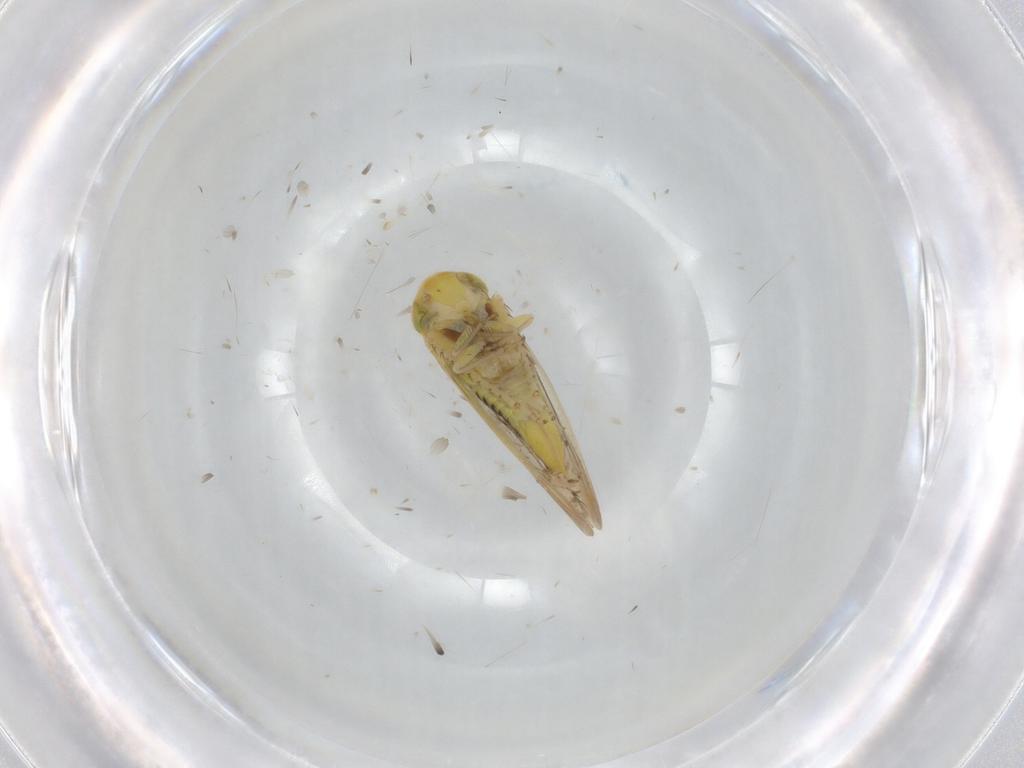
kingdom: Animalia
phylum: Arthropoda
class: Insecta
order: Hemiptera
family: Cicadellidae
